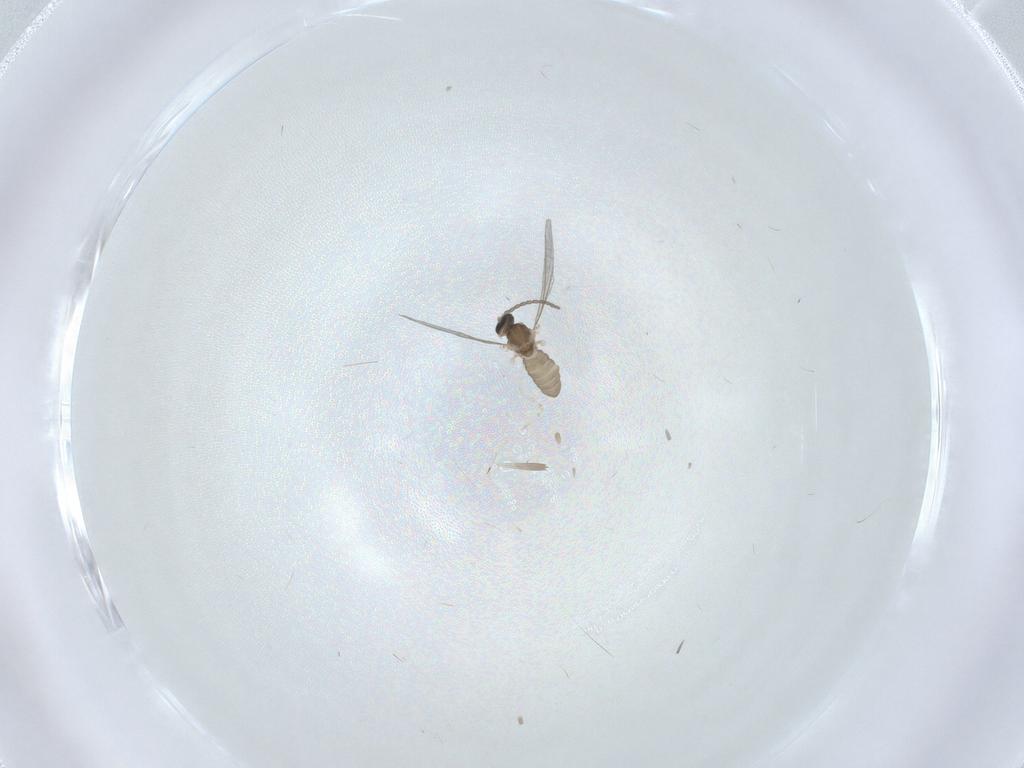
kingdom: Animalia
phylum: Arthropoda
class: Insecta
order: Diptera
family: Cecidomyiidae
